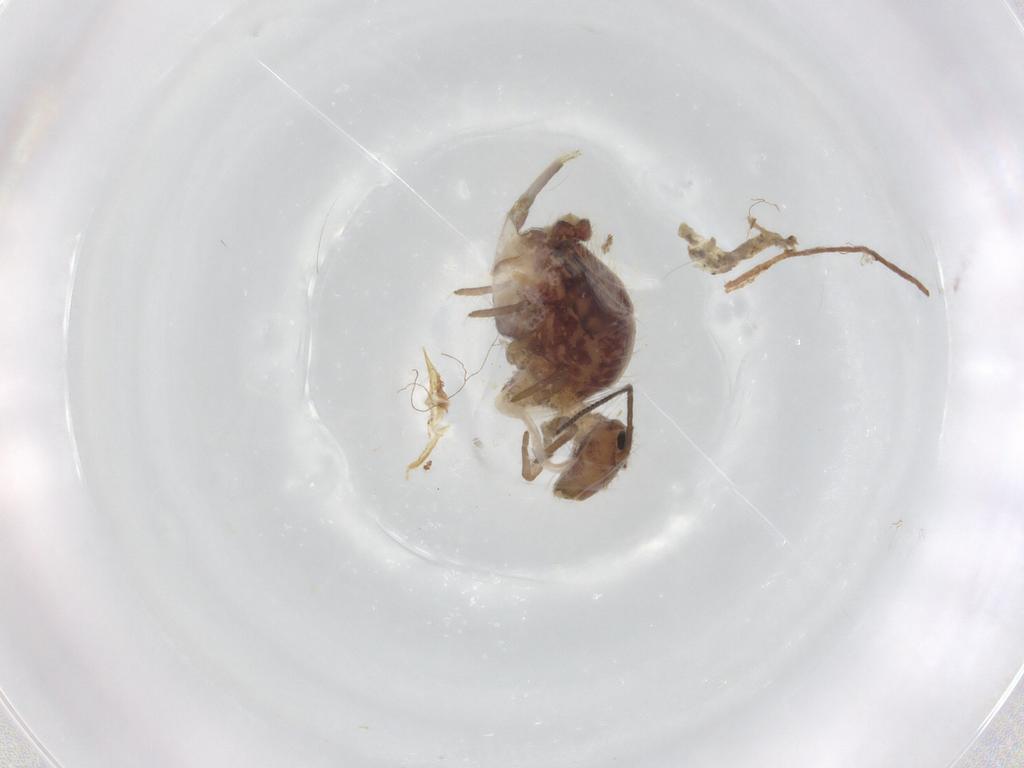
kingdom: Animalia
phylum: Arthropoda
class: Collembola
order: Symphypleona
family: Sminthuridae
